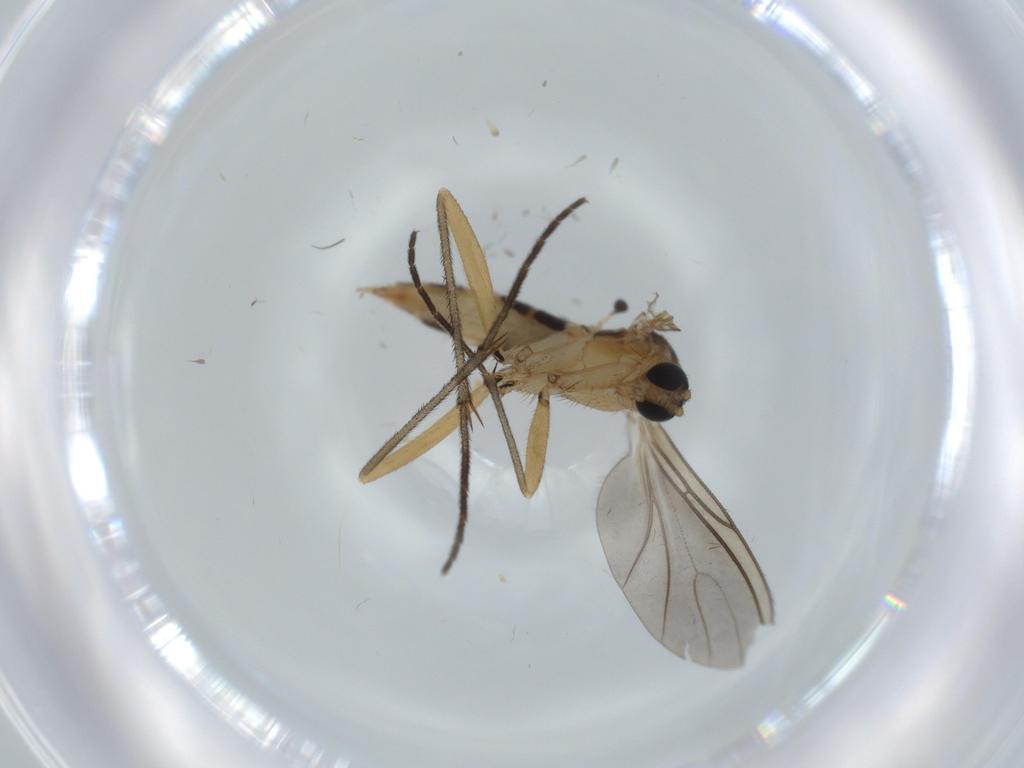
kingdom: Animalia
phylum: Arthropoda
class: Insecta
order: Diptera
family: Sciaridae
